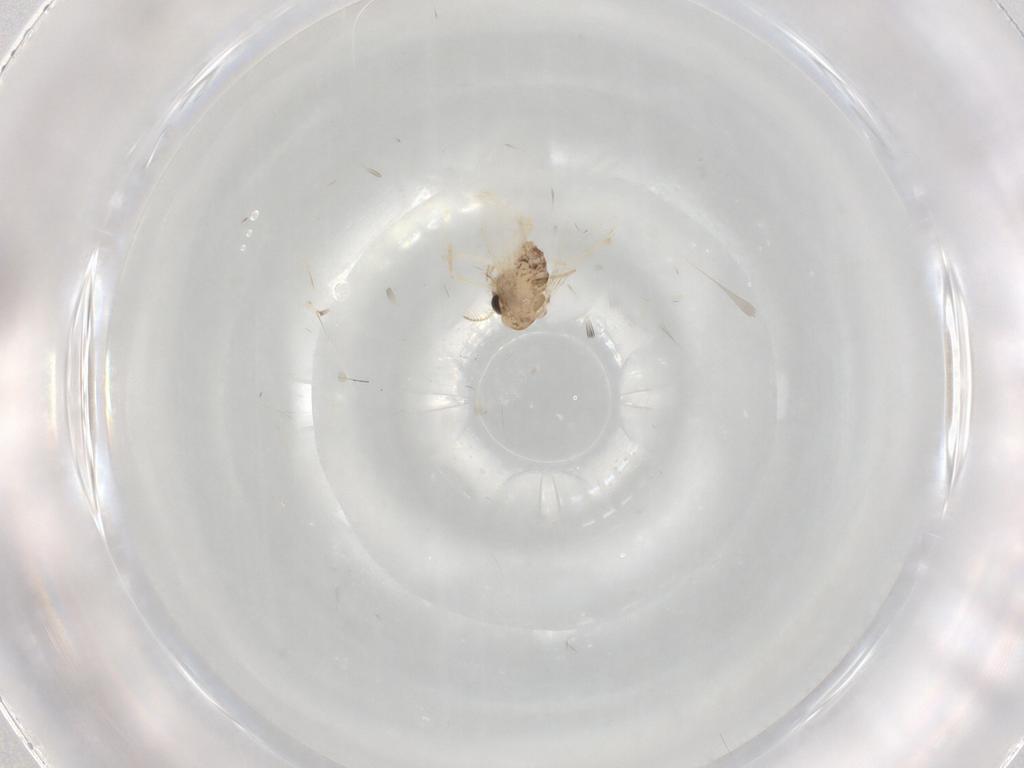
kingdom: Animalia
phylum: Arthropoda
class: Insecta
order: Diptera
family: Chironomidae
